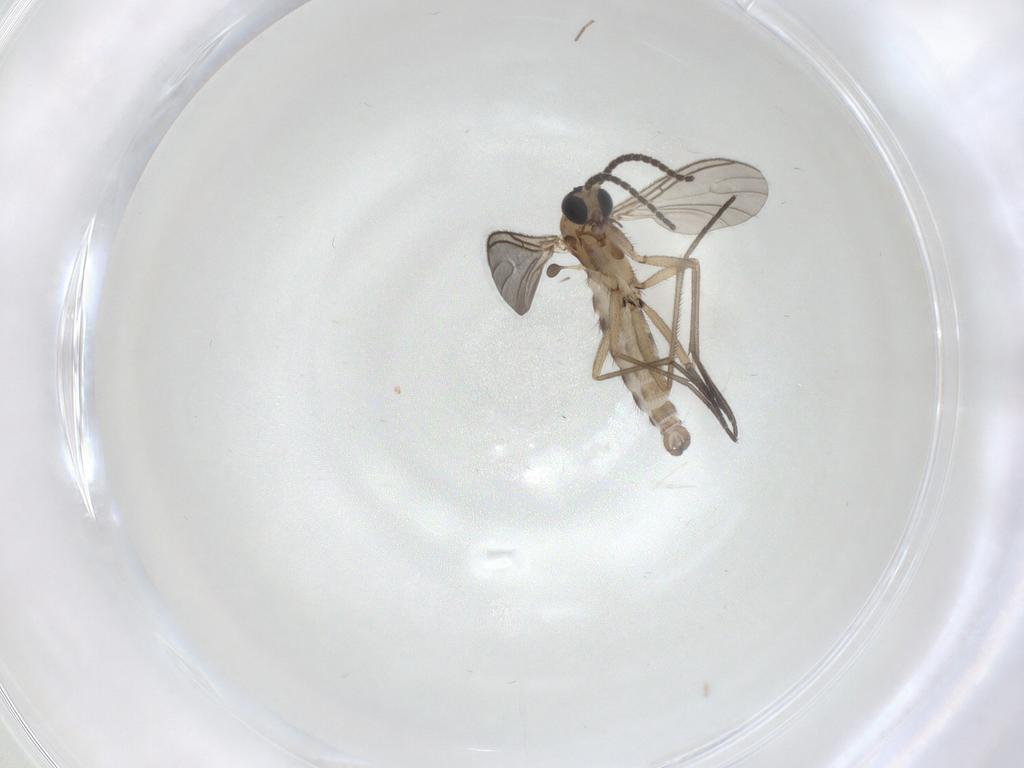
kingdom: Animalia
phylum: Arthropoda
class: Insecta
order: Diptera
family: Sciaridae
